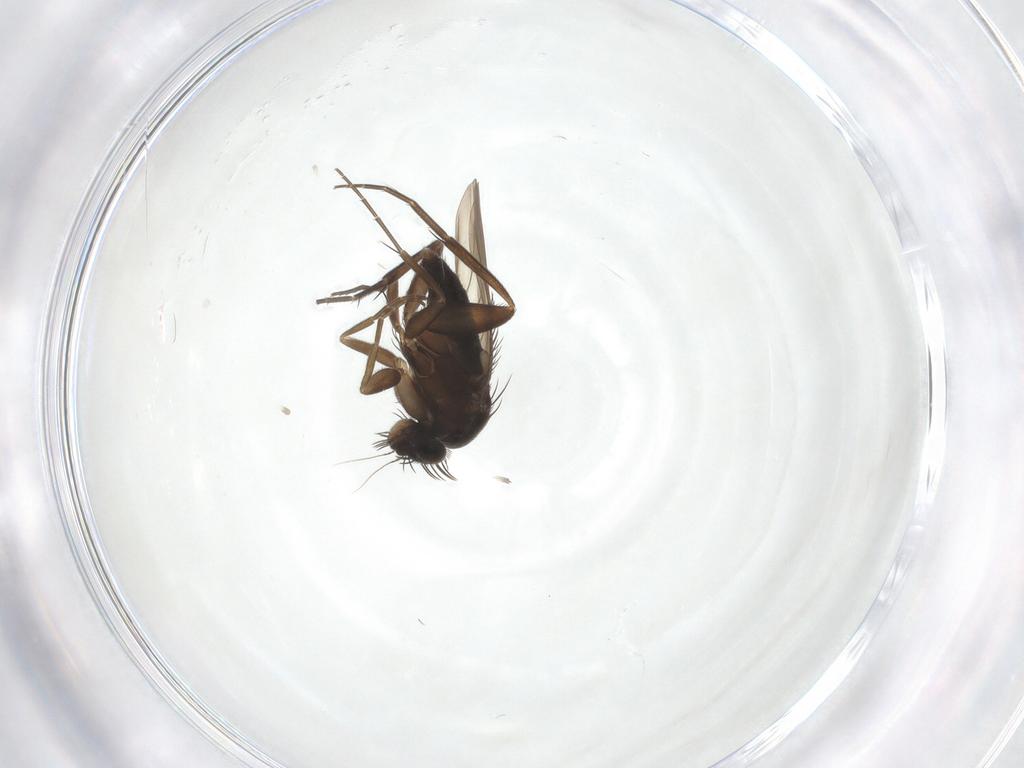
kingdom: Animalia
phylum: Arthropoda
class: Insecta
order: Diptera
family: Phoridae
